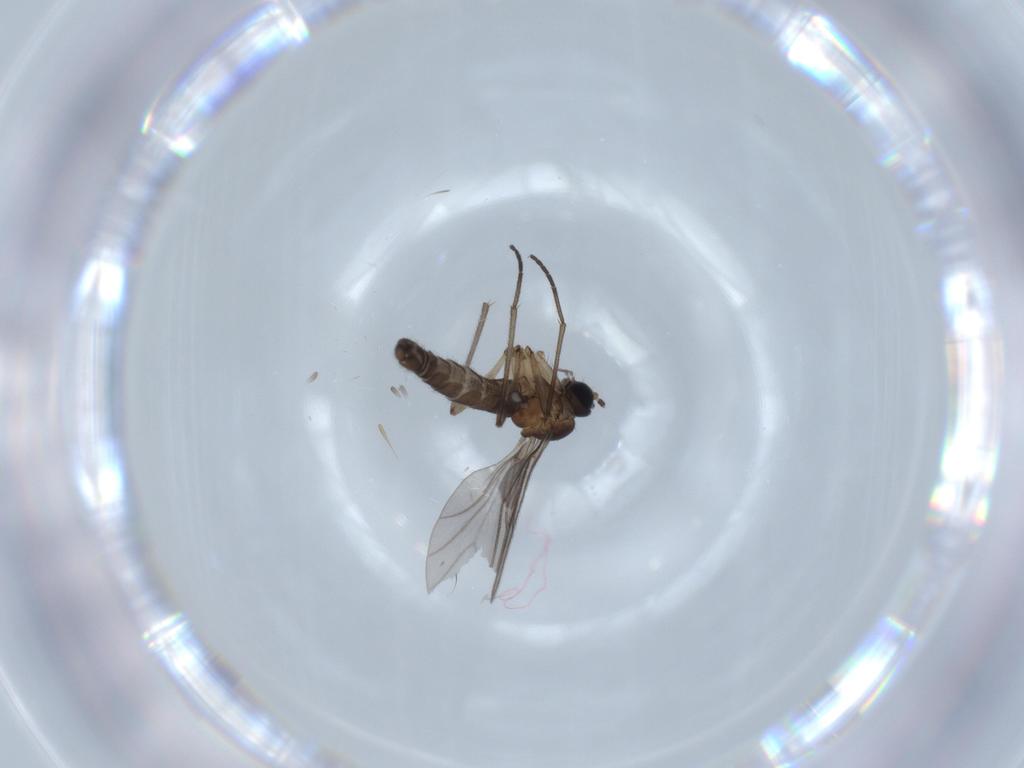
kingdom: Animalia
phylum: Arthropoda
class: Insecta
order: Diptera
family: Sciaridae
